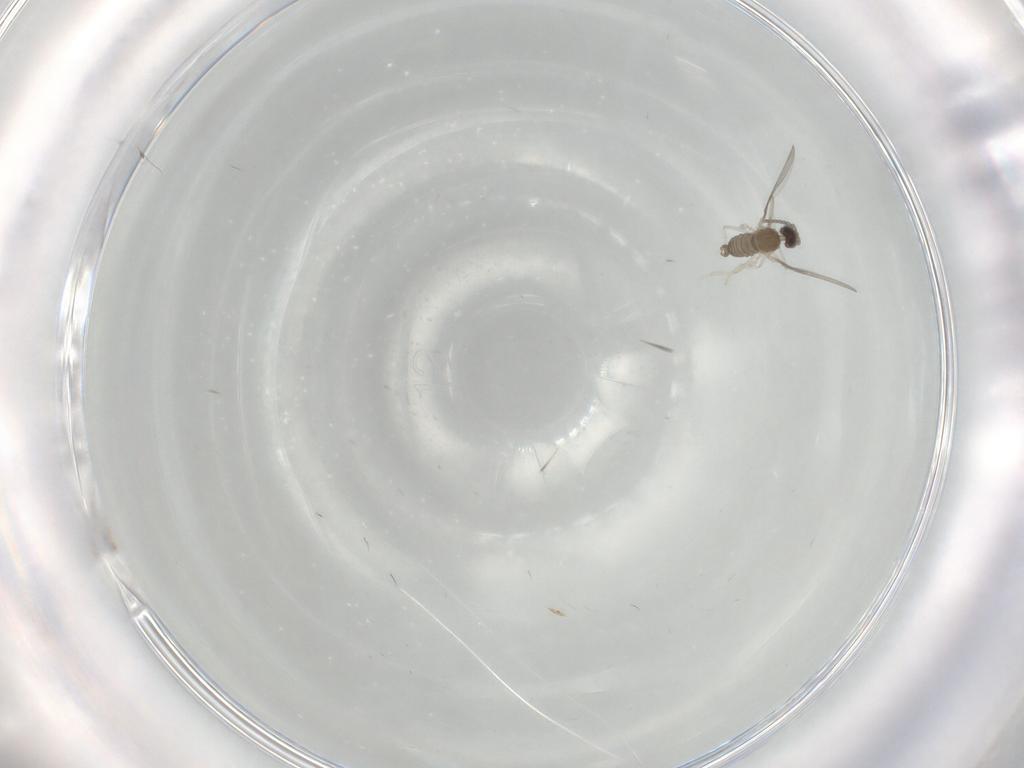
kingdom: Animalia
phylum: Arthropoda
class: Insecta
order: Diptera
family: Cecidomyiidae
